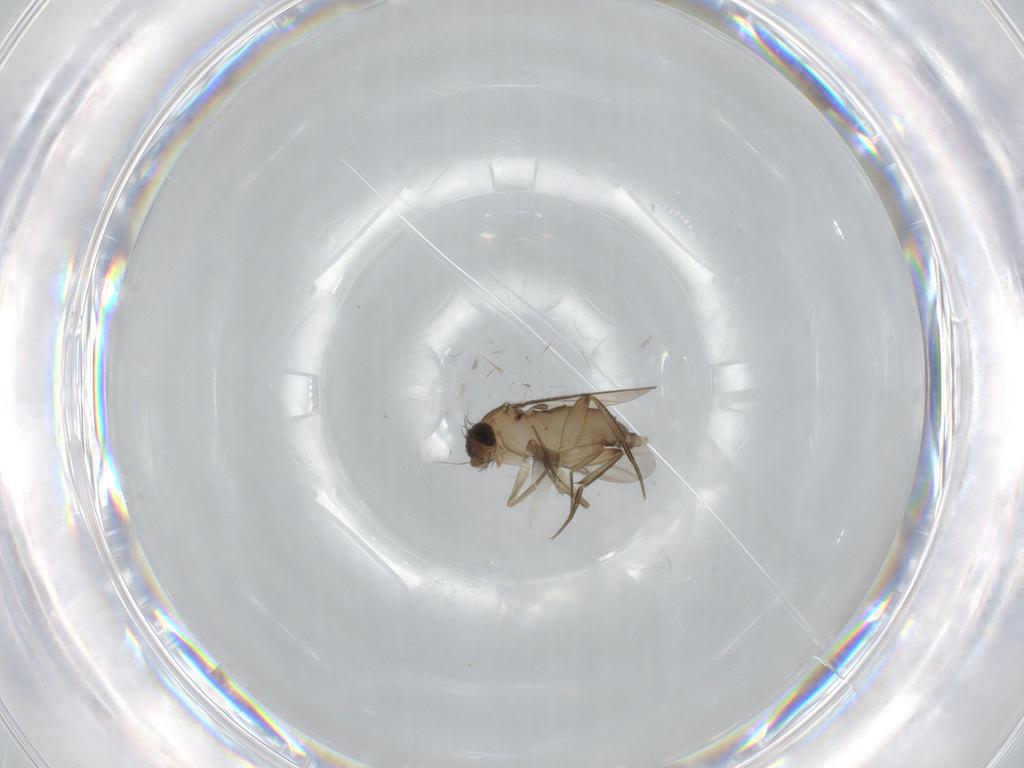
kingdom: Animalia
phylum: Arthropoda
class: Insecta
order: Diptera
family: Phoridae
